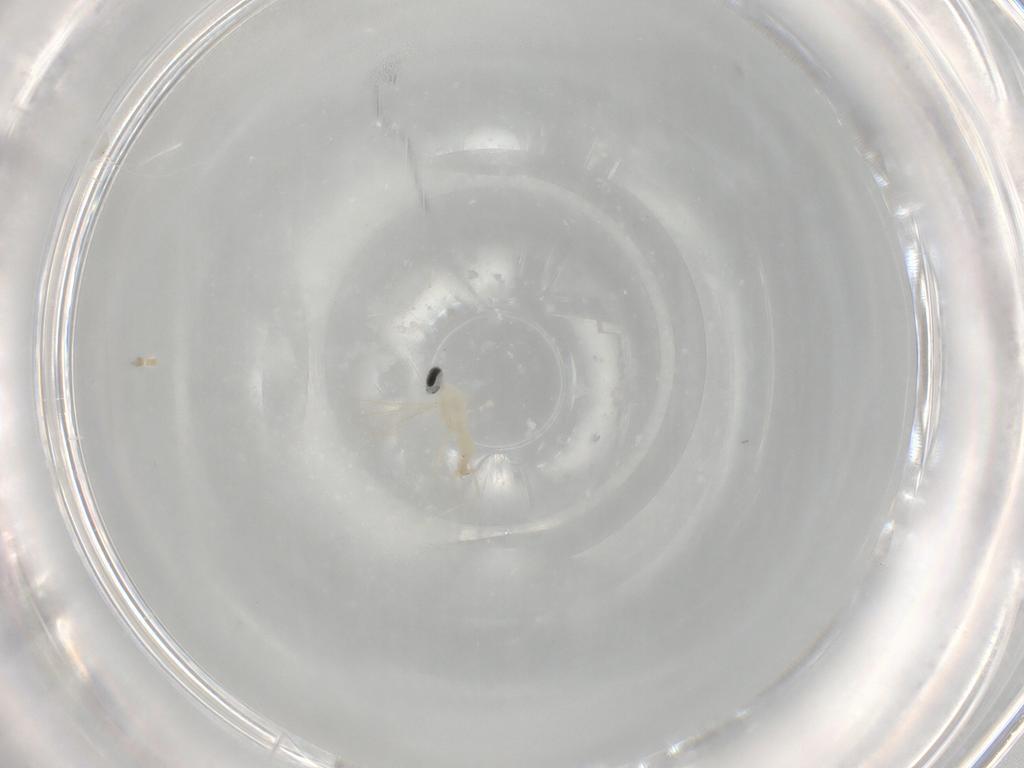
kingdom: Animalia
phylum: Arthropoda
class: Insecta
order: Diptera
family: Cecidomyiidae
